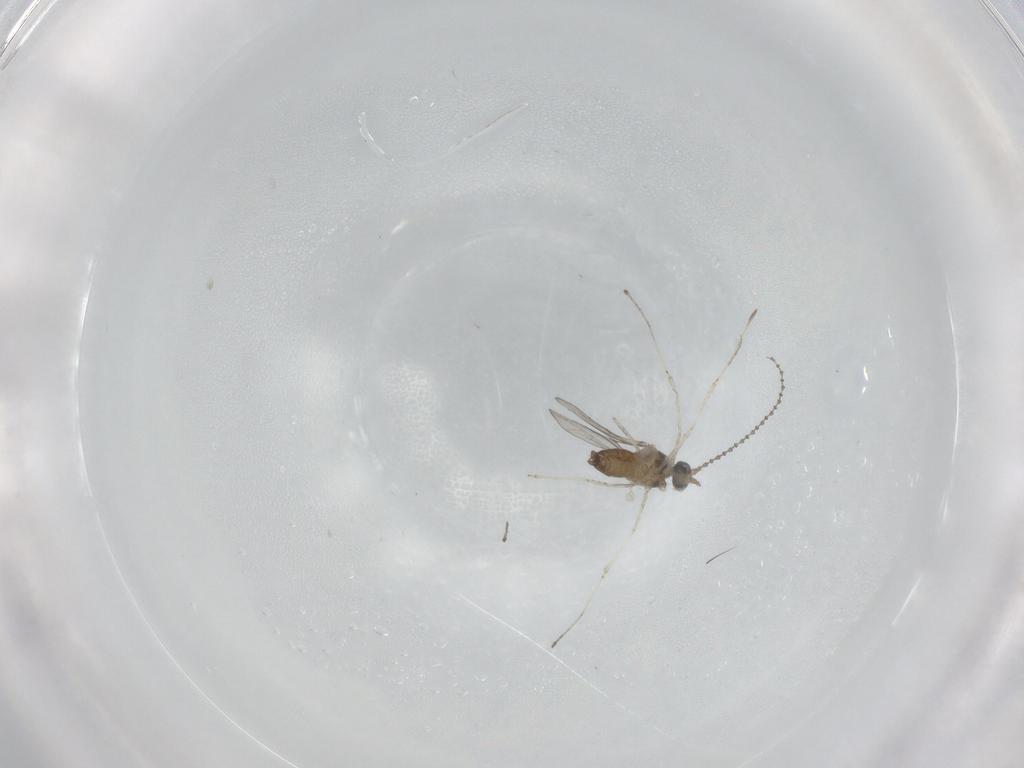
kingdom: Animalia
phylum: Arthropoda
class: Insecta
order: Diptera
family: Cecidomyiidae
